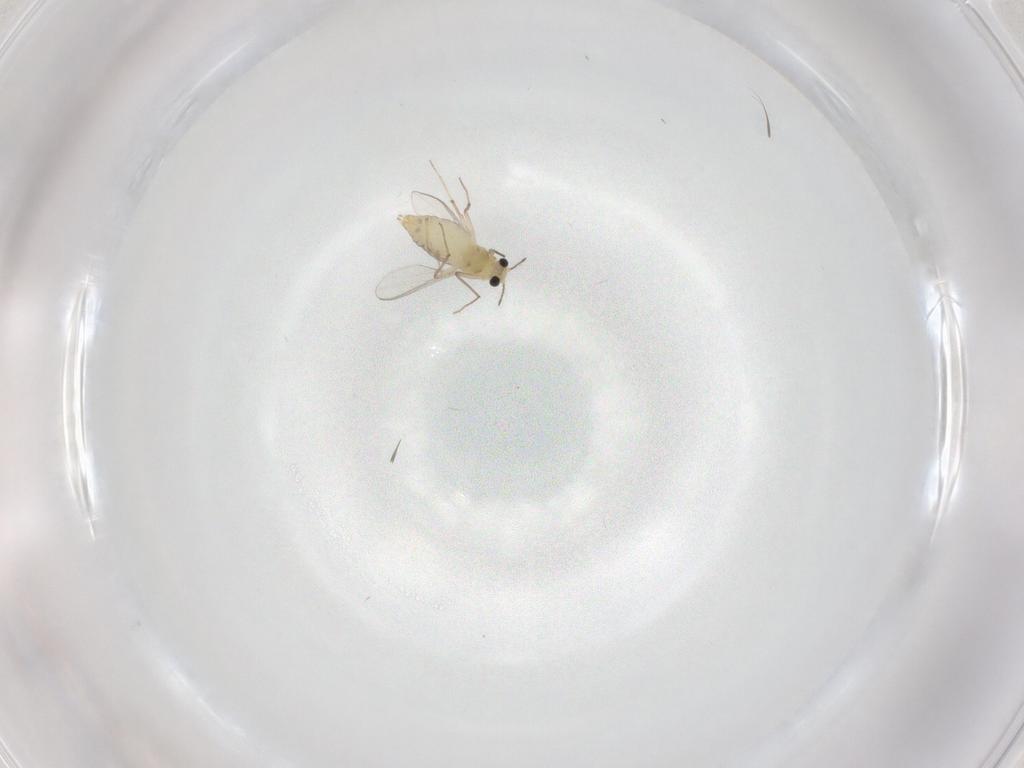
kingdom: Animalia
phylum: Arthropoda
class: Insecta
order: Diptera
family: Chironomidae
